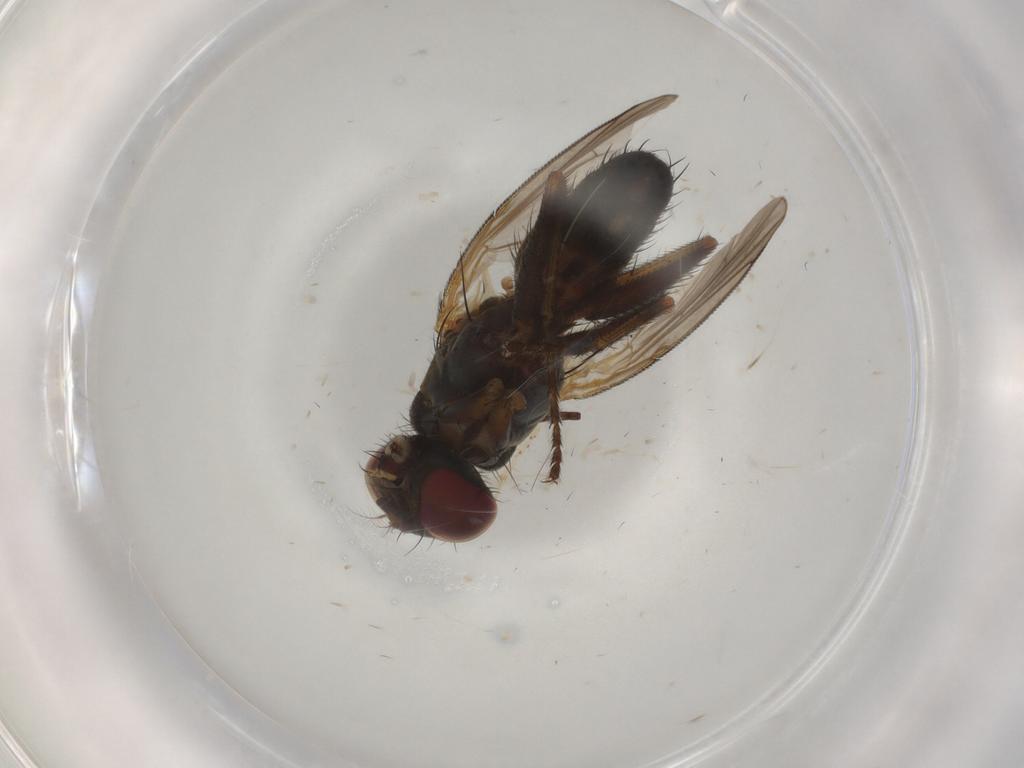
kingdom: Animalia
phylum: Arthropoda
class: Insecta
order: Diptera
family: Muscidae
